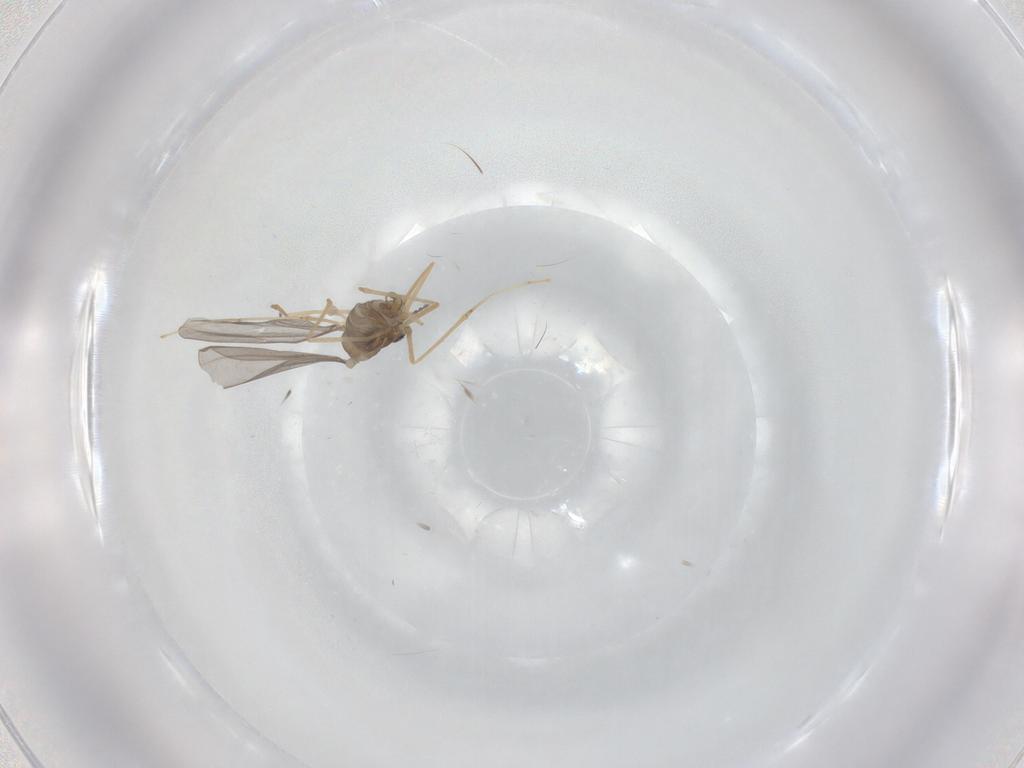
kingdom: Animalia
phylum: Arthropoda
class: Insecta
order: Diptera
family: Cecidomyiidae
